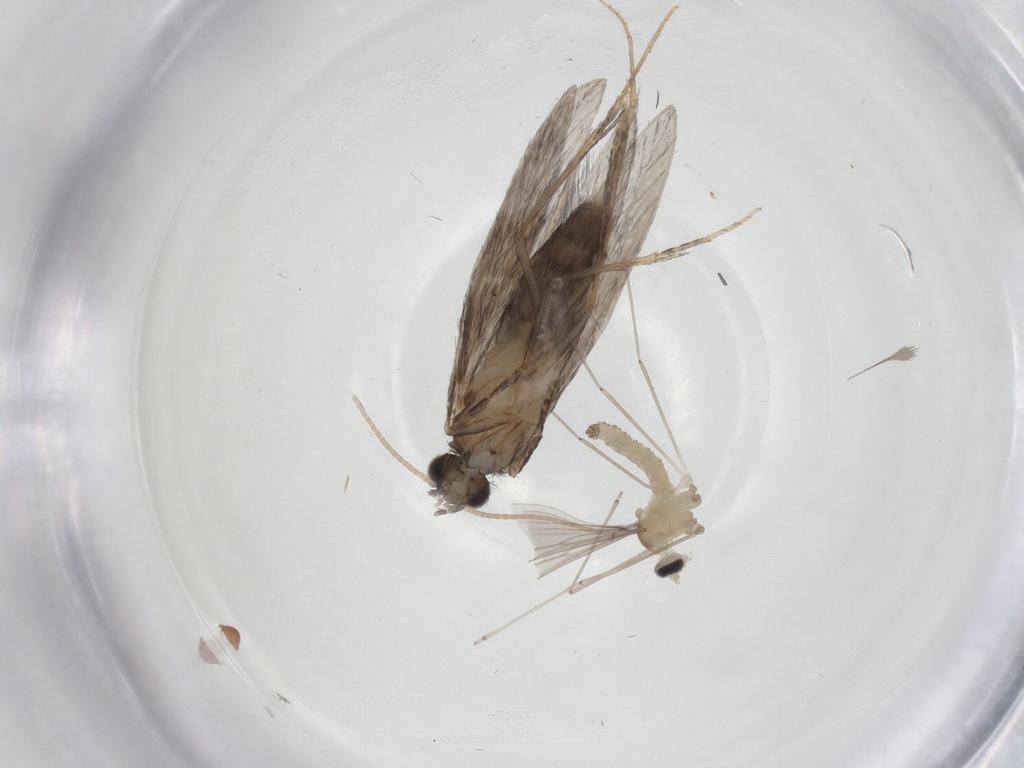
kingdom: Animalia
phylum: Arthropoda
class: Insecta
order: Diptera
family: Cecidomyiidae
